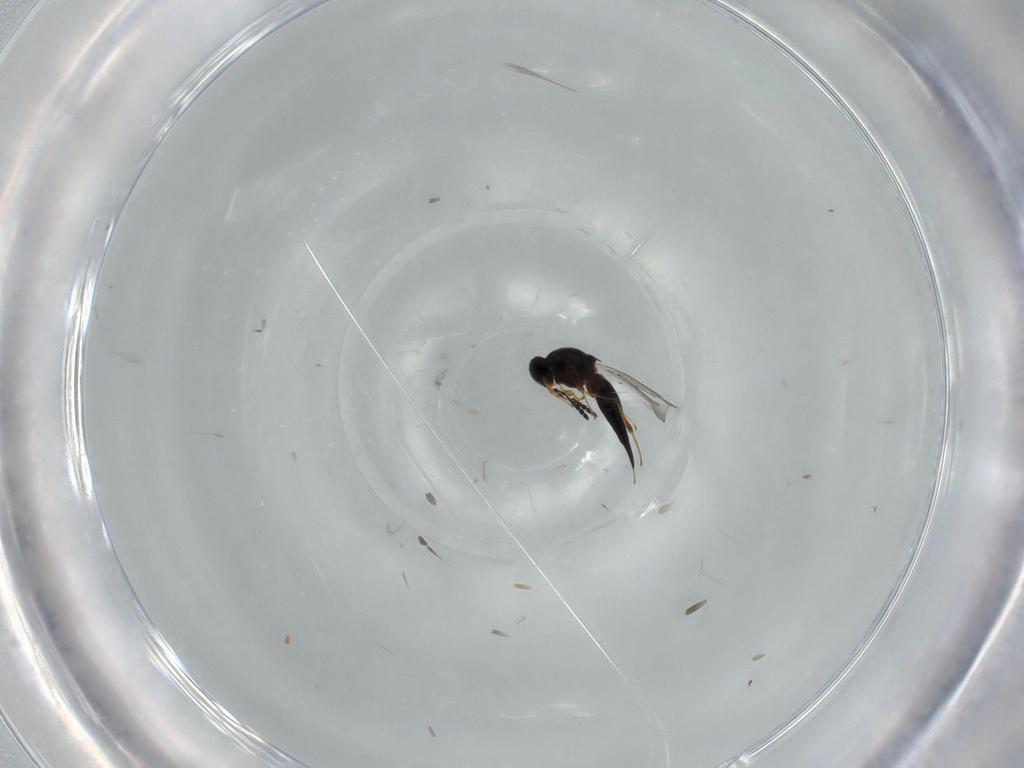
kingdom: Animalia
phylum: Arthropoda
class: Insecta
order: Hymenoptera
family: Platygastridae
